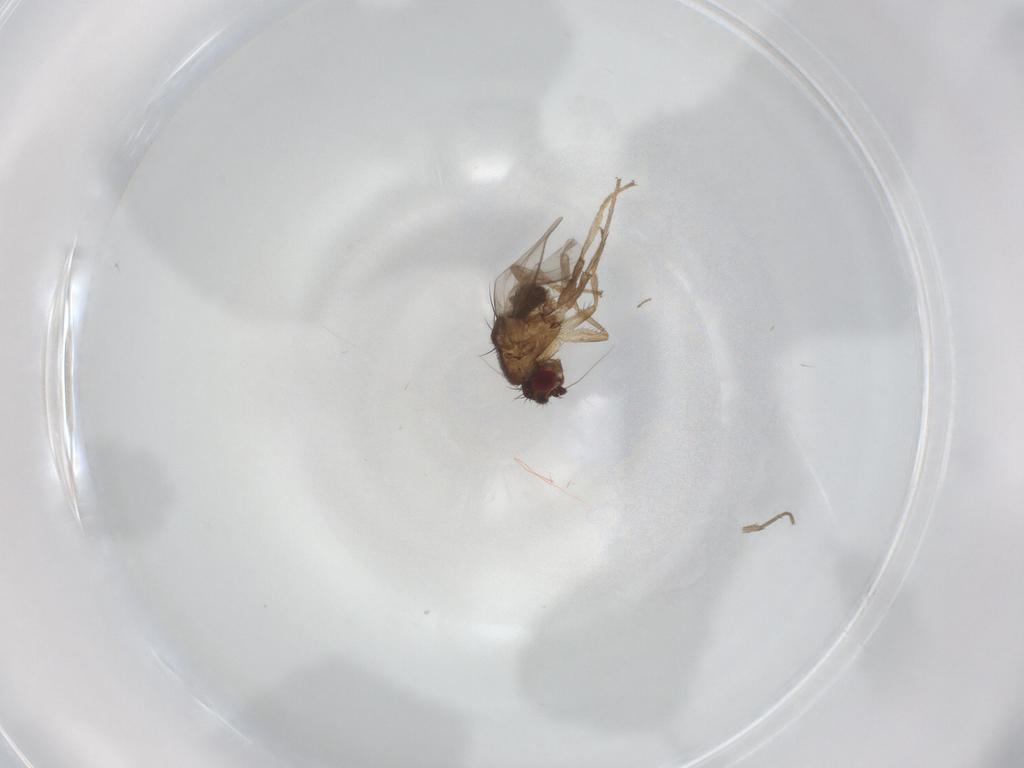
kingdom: Animalia
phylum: Arthropoda
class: Insecta
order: Diptera
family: Sphaeroceridae
